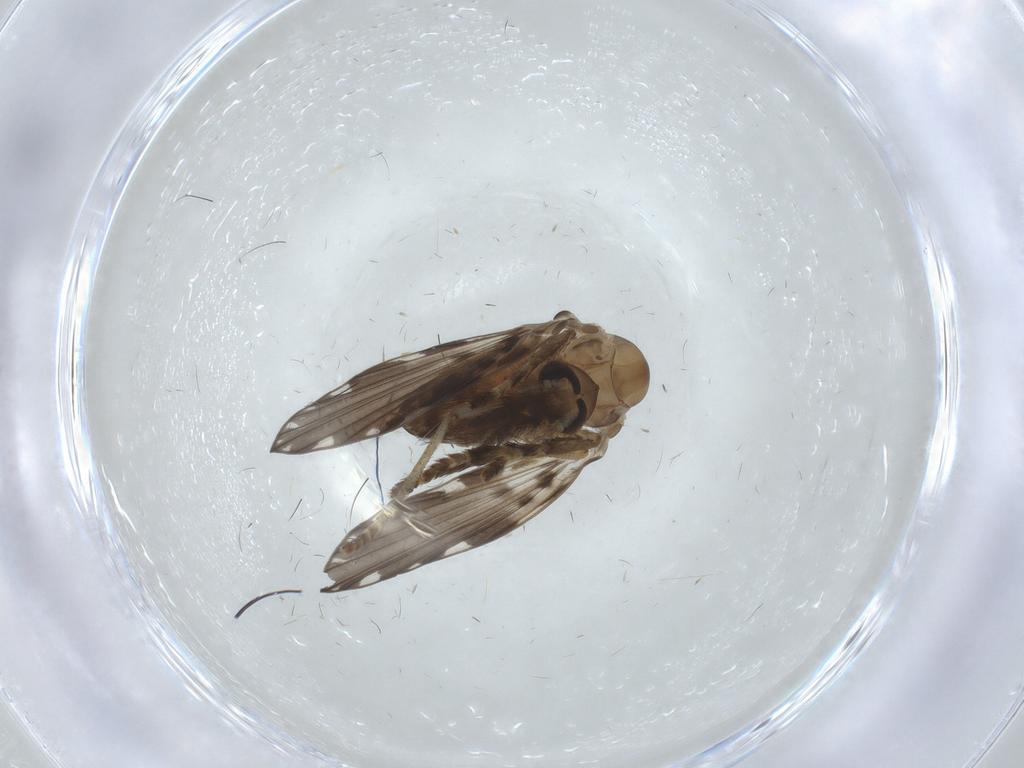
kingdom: Animalia
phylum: Arthropoda
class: Insecta
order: Diptera
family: Psychodidae
